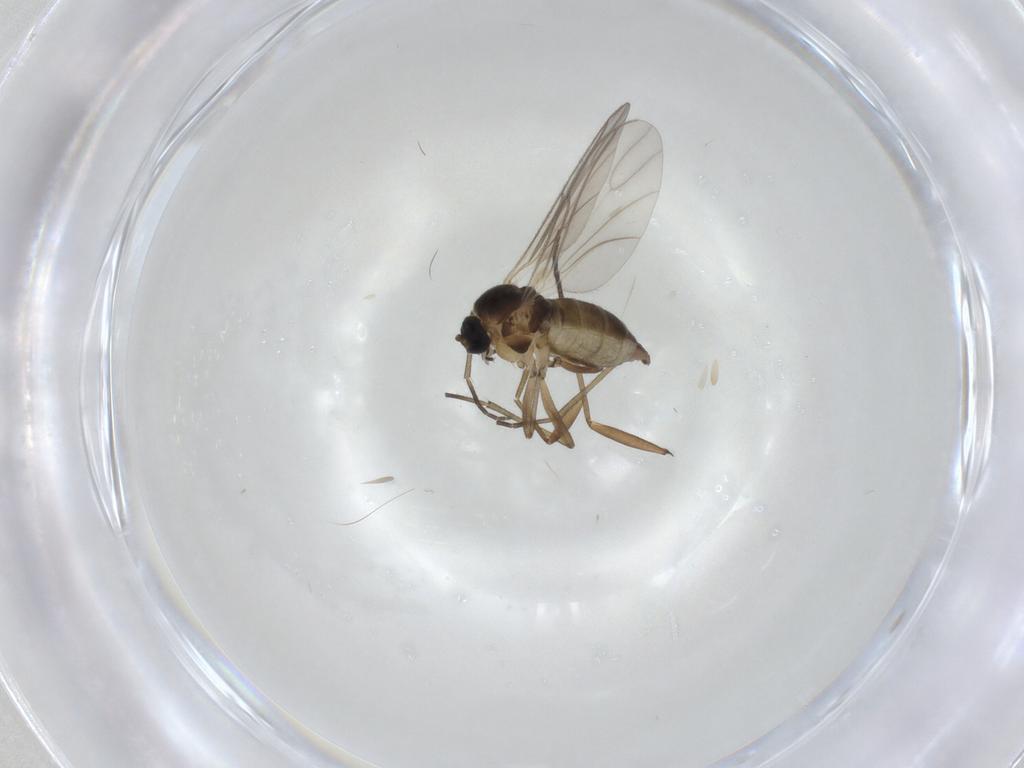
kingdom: Animalia
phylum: Arthropoda
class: Insecta
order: Diptera
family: Sciaridae
